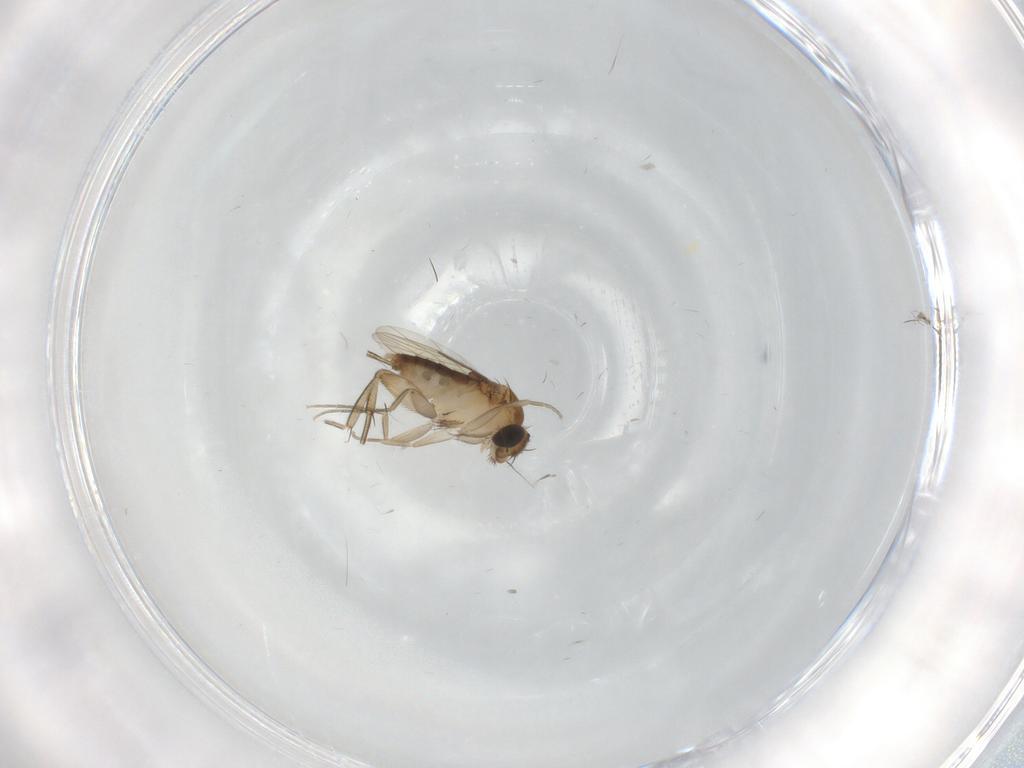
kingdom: Animalia
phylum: Arthropoda
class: Insecta
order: Diptera
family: Phoridae
